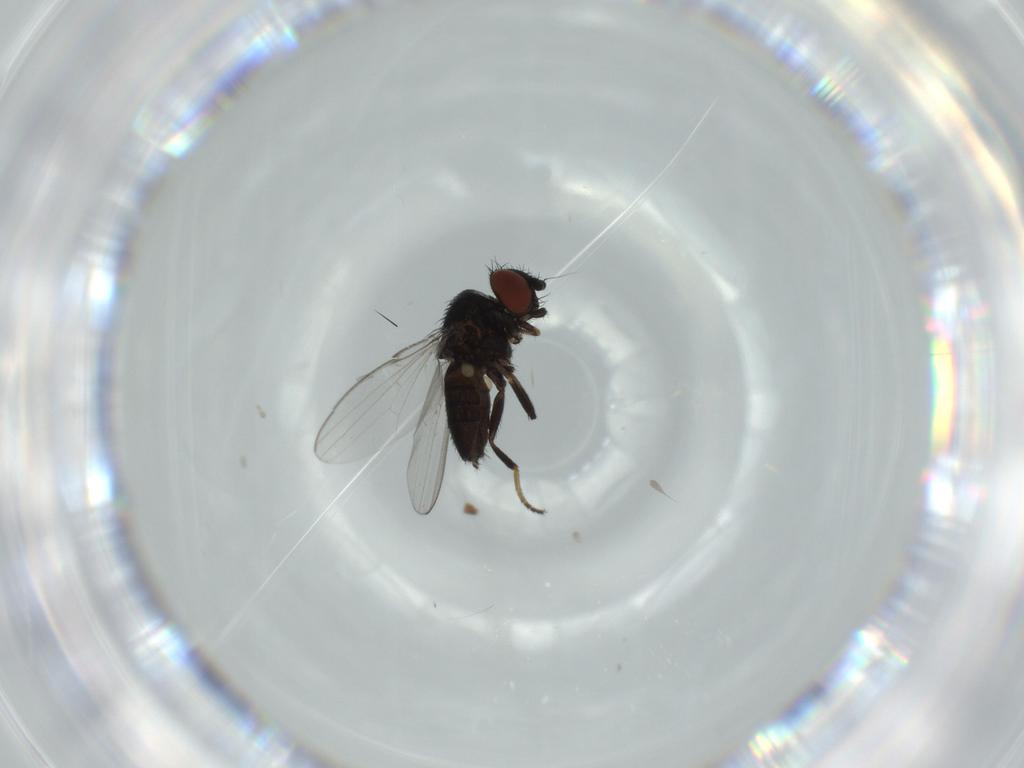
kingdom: Animalia
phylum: Arthropoda
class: Insecta
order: Diptera
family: Milichiidae
